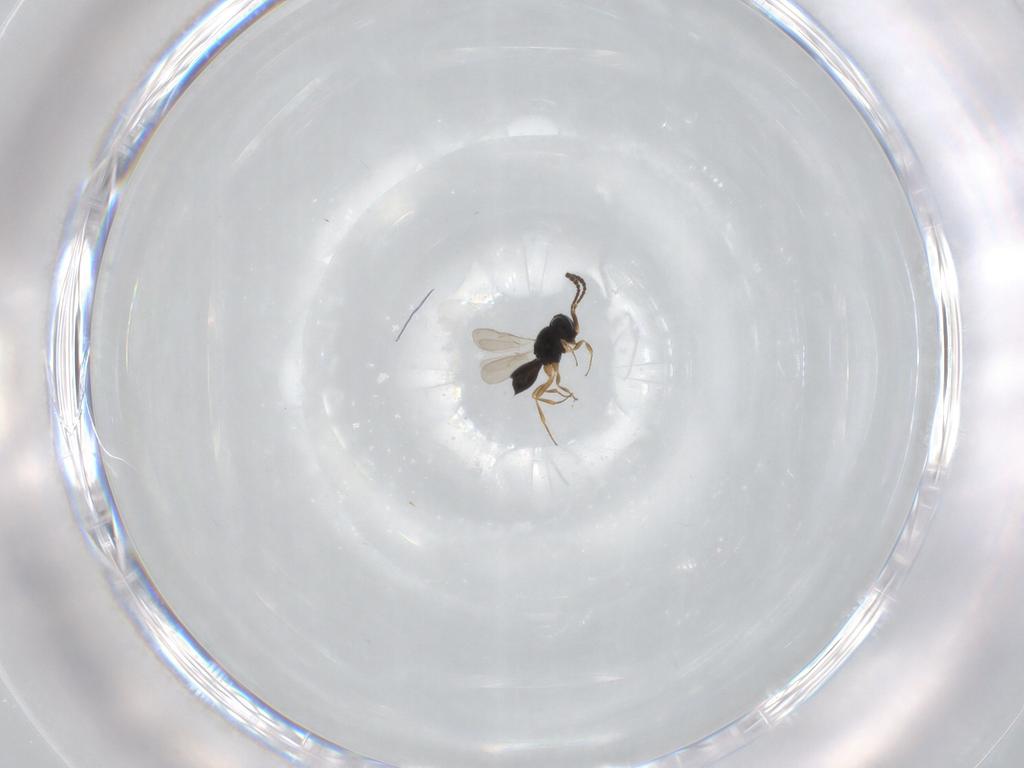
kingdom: Animalia
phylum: Arthropoda
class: Insecta
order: Hymenoptera
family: Scelionidae
